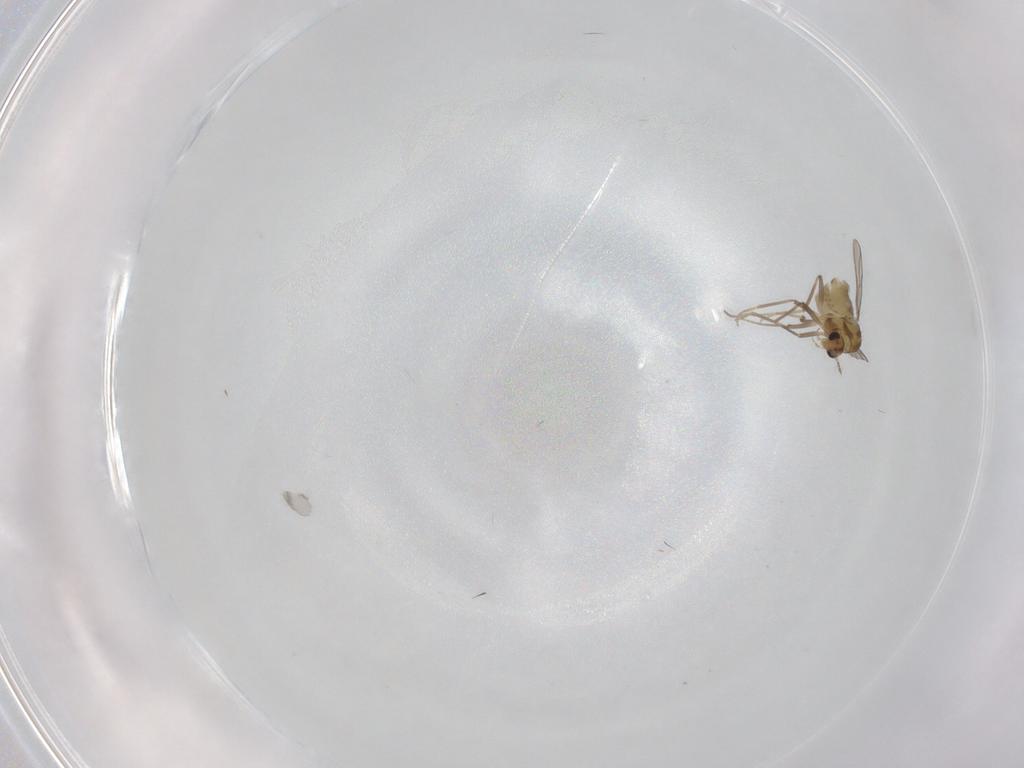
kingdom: Animalia
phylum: Arthropoda
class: Insecta
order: Diptera
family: Chironomidae
